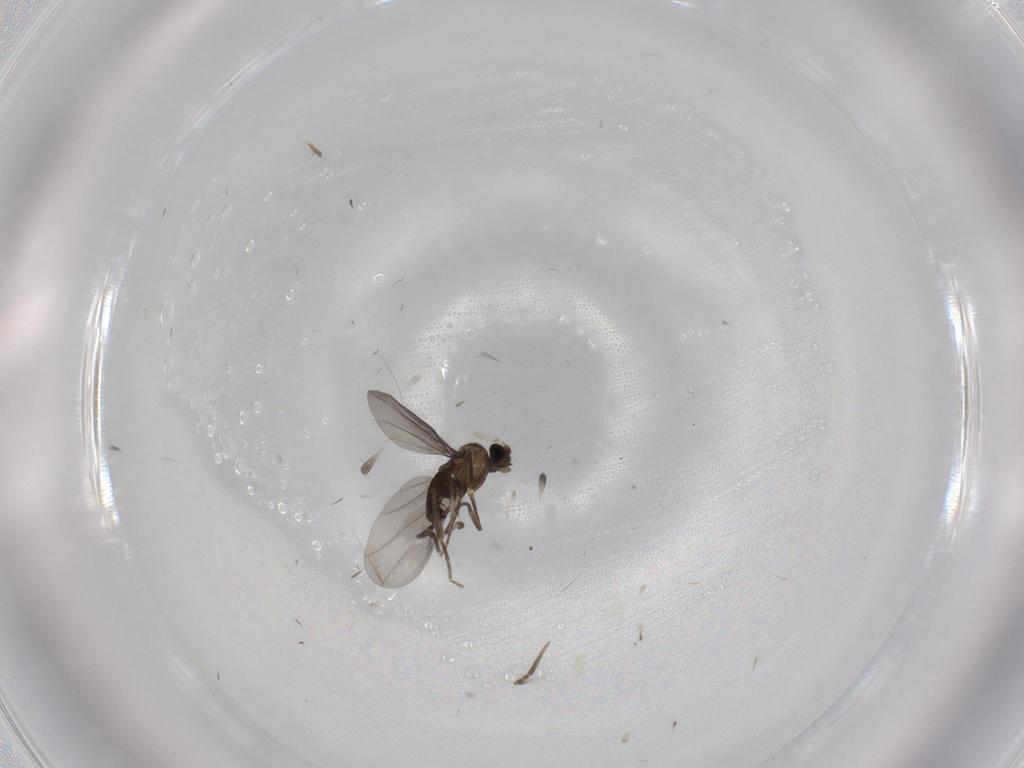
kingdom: Animalia
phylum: Arthropoda
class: Insecta
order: Diptera
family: Phoridae
